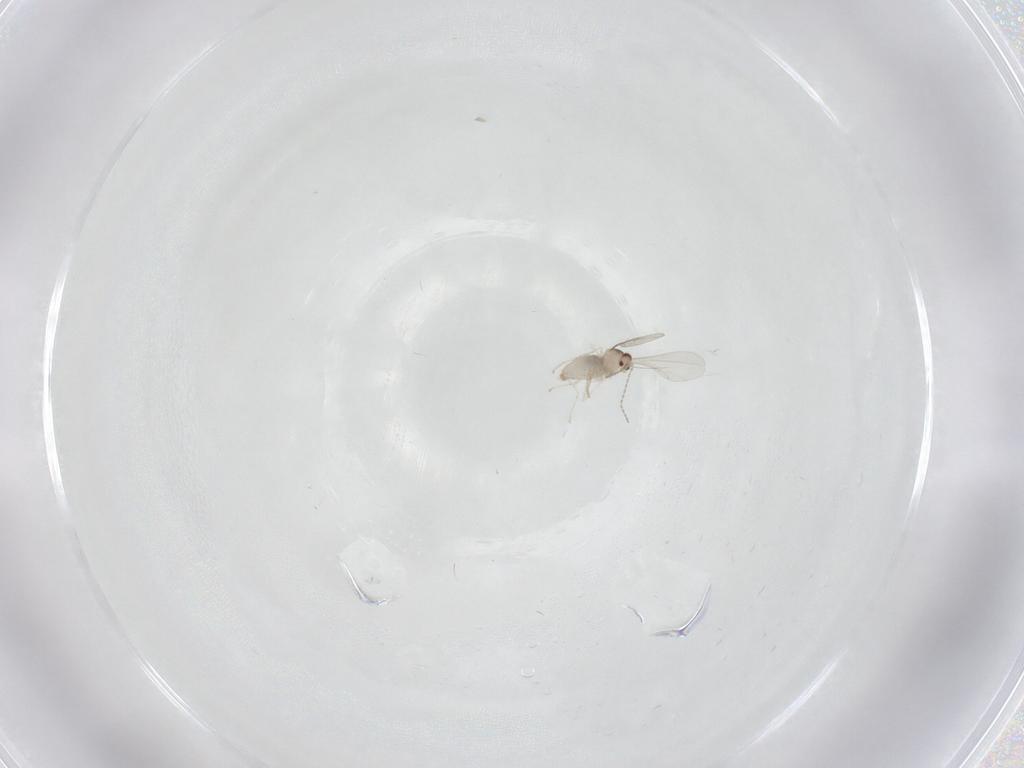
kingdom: Animalia
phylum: Arthropoda
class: Insecta
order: Diptera
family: Cecidomyiidae
